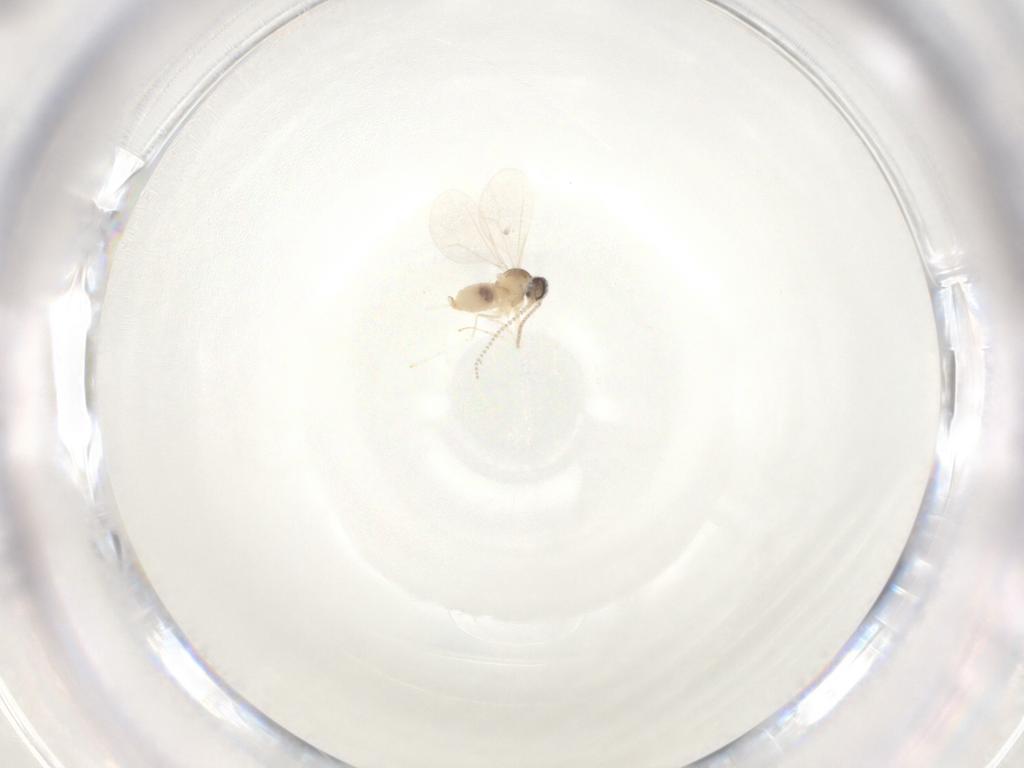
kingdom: Animalia
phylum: Arthropoda
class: Insecta
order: Diptera
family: Cecidomyiidae
